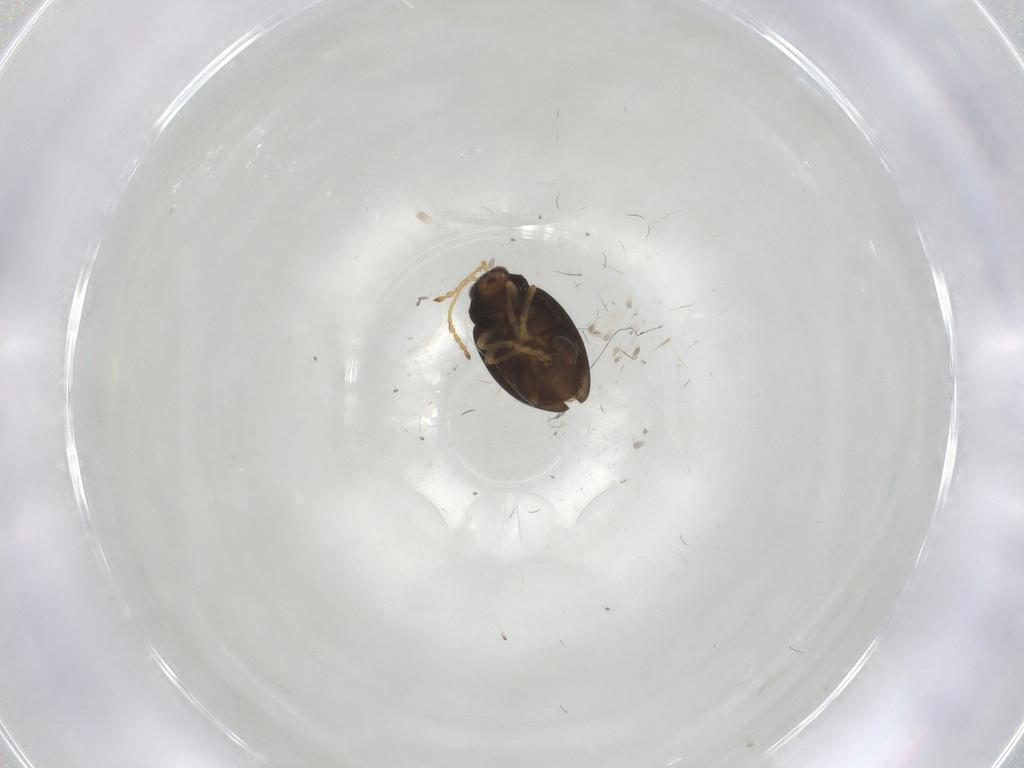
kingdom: Animalia
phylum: Arthropoda
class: Insecta
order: Coleoptera
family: Chrysomelidae
